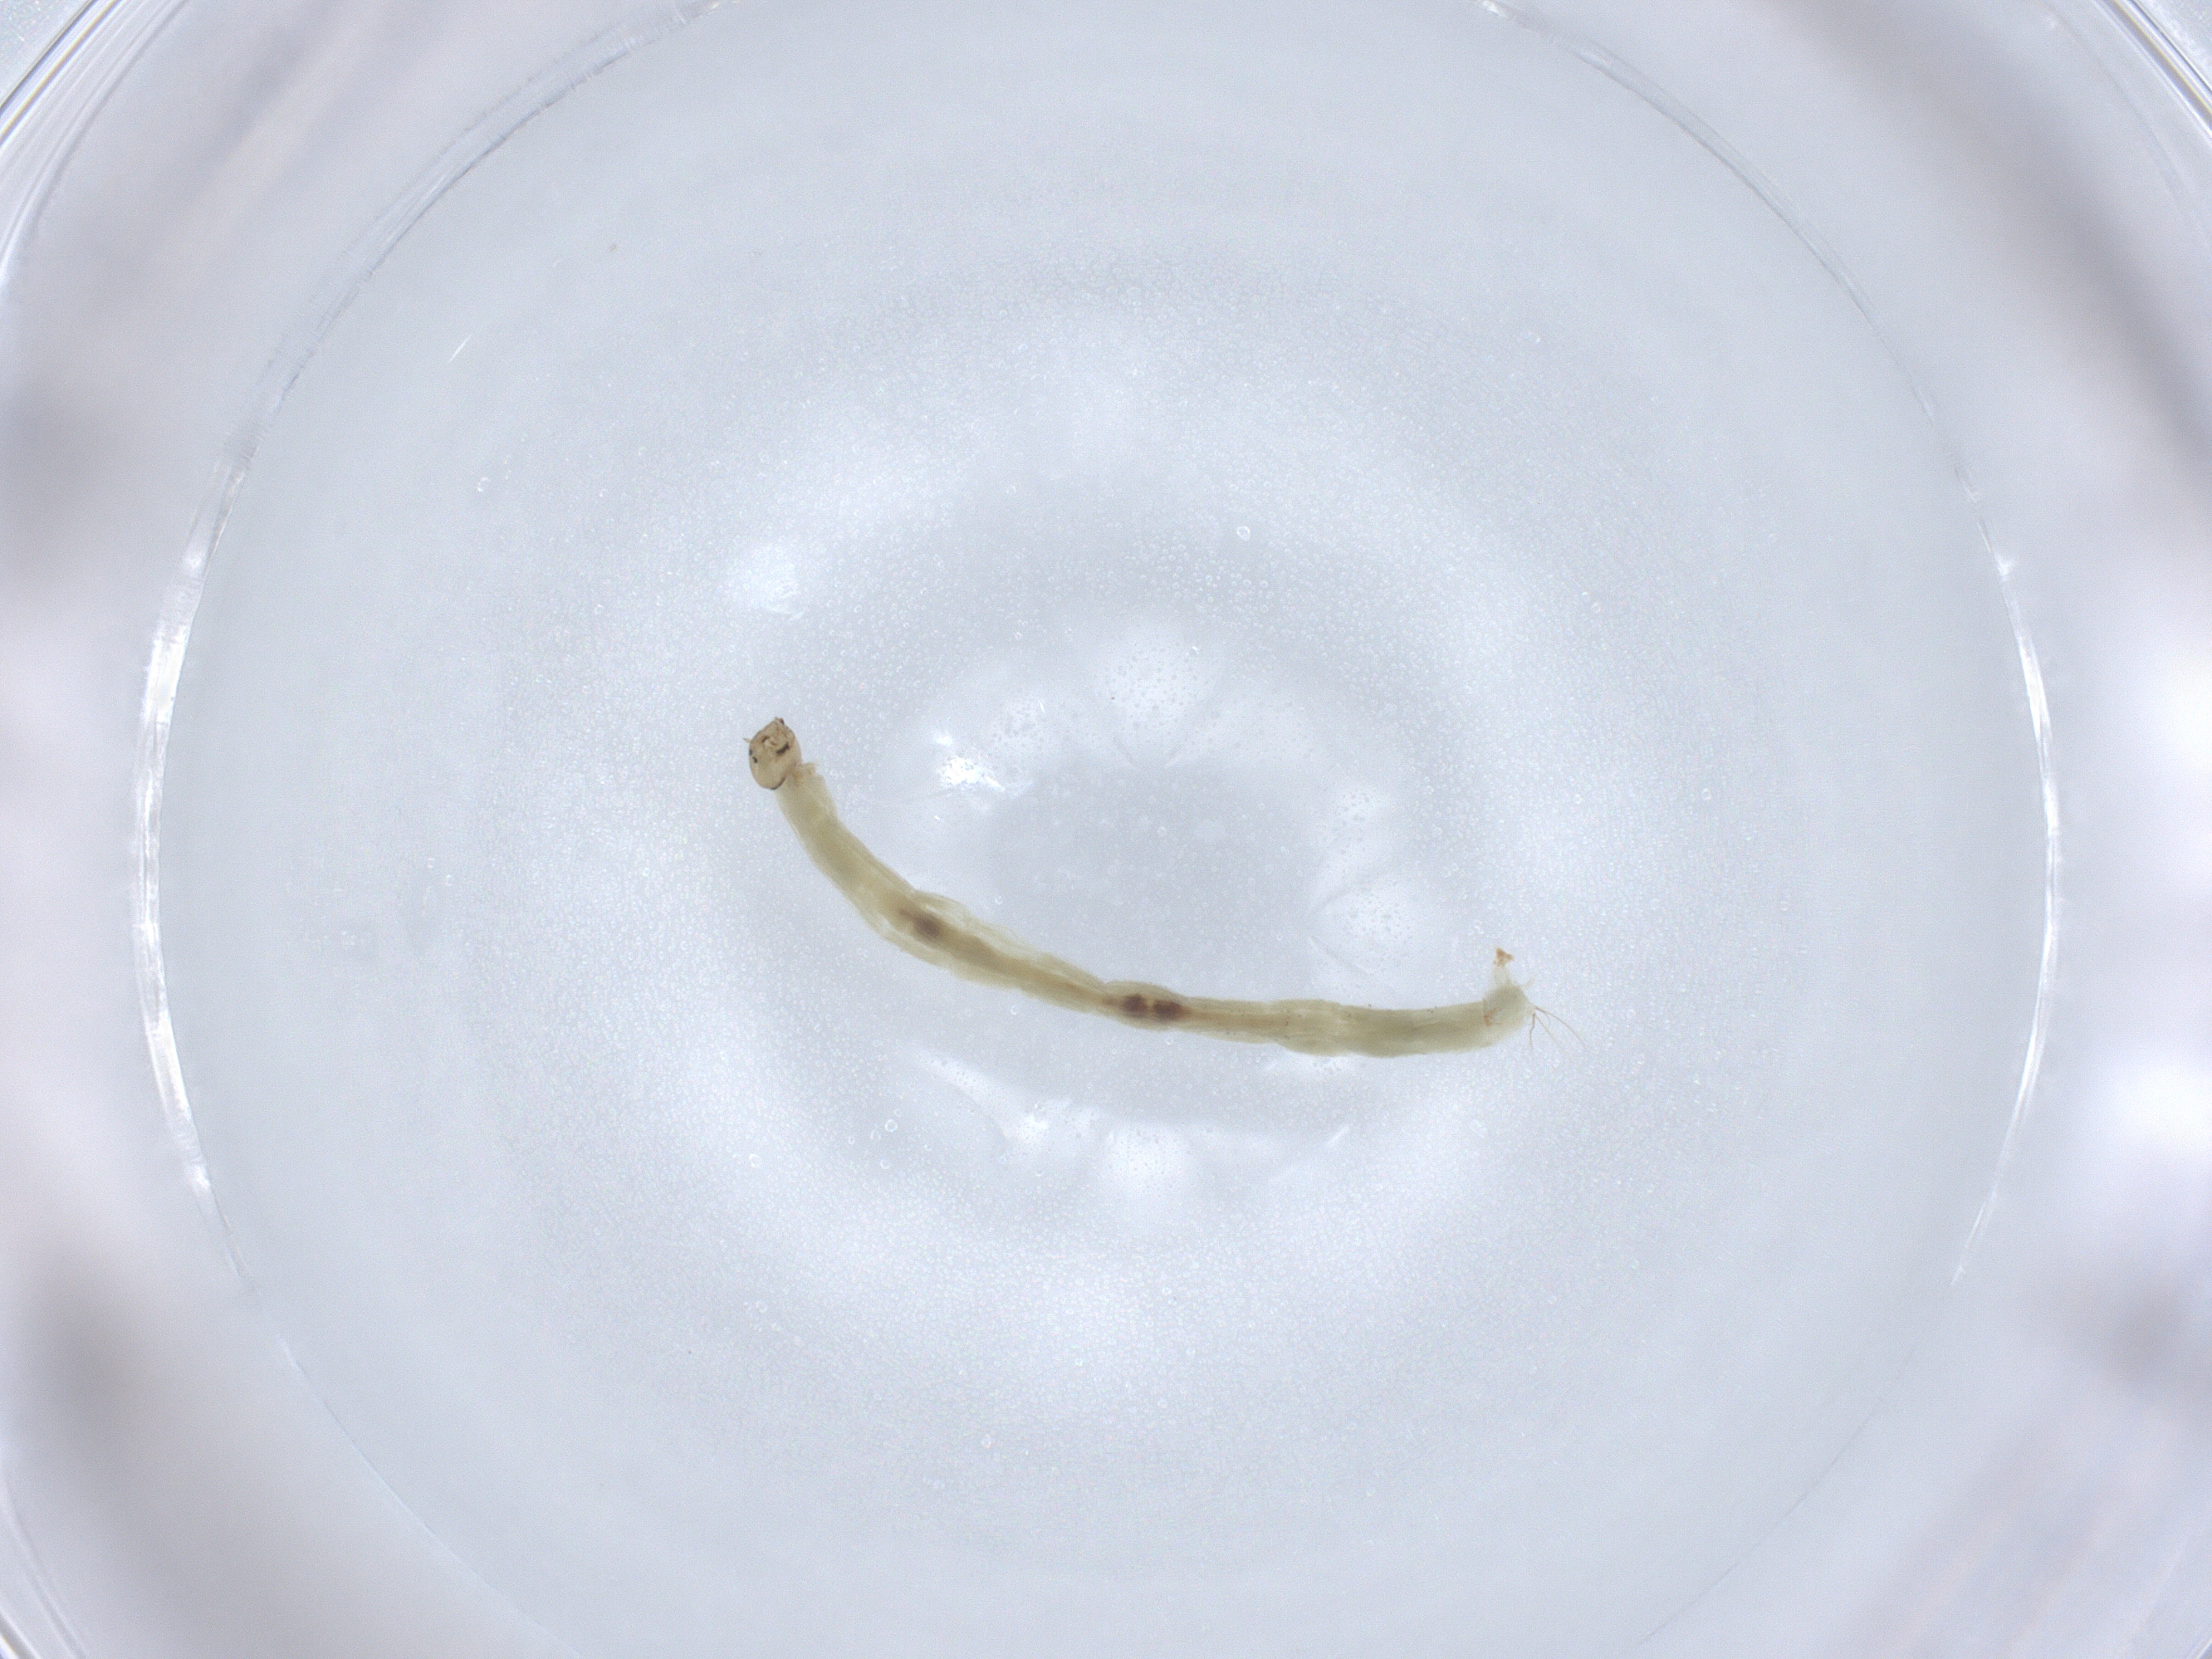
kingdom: Animalia
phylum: Arthropoda
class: Insecta
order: Diptera
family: Chironomidae
